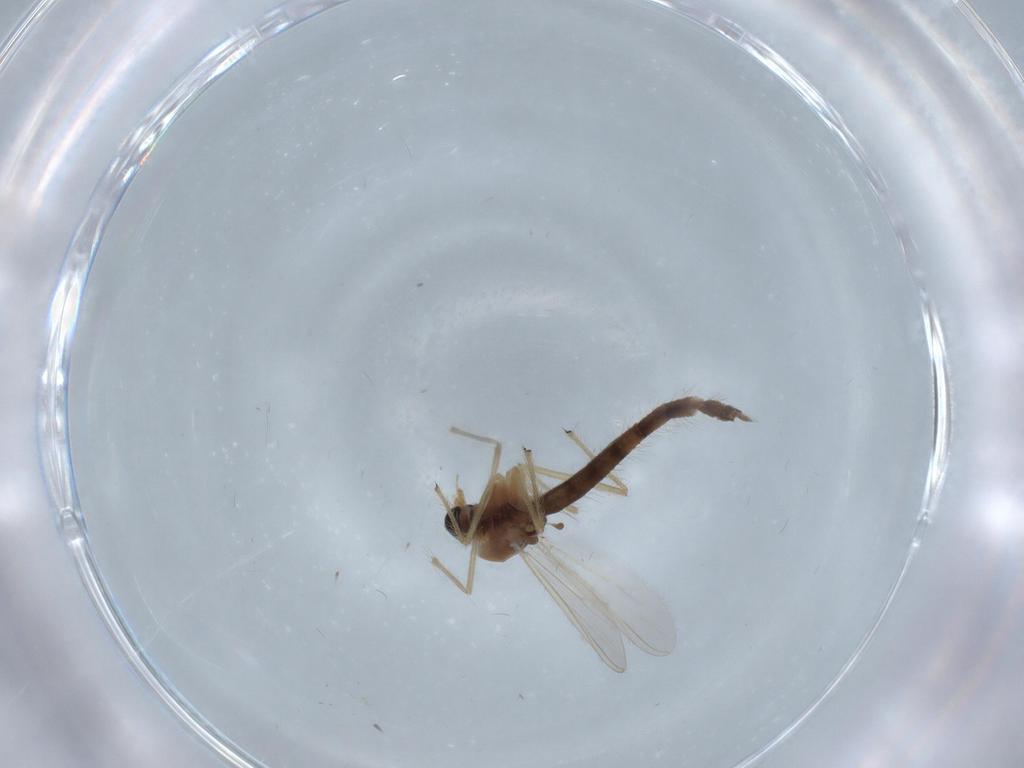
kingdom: Animalia
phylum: Arthropoda
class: Insecta
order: Diptera
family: Chironomidae
